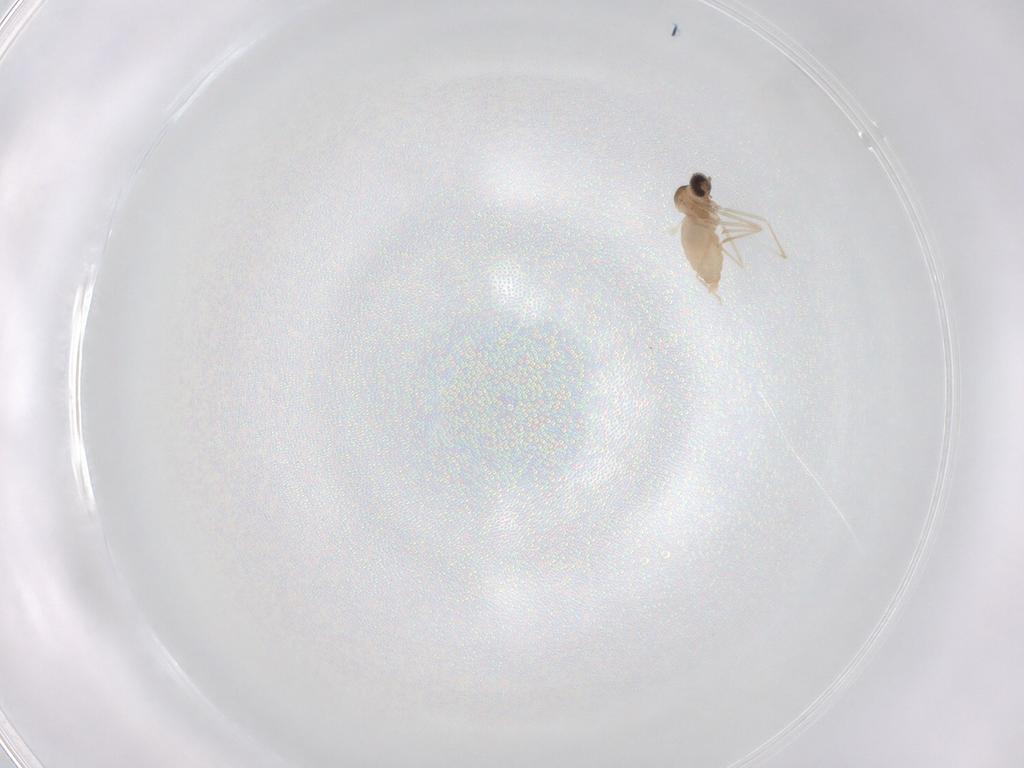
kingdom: Animalia
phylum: Arthropoda
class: Insecta
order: Diptera
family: Cecidomyiidae
